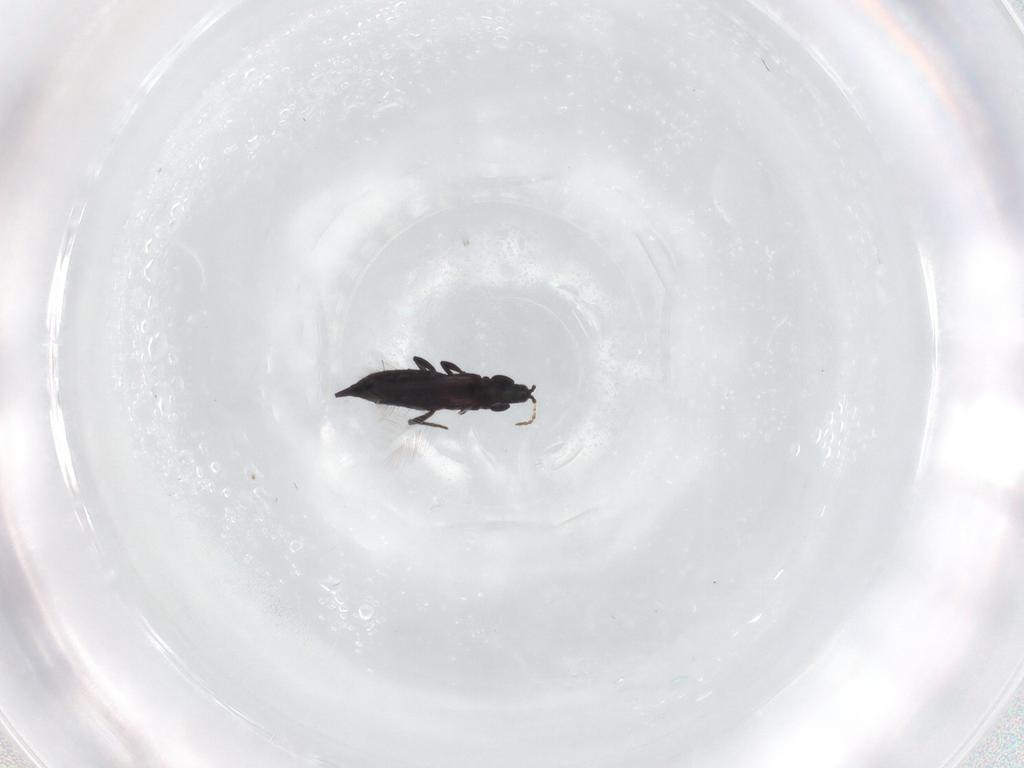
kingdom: Animalia
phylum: Arthropoda
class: Insecta
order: Thysanoptera
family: Phlaeothripidae
